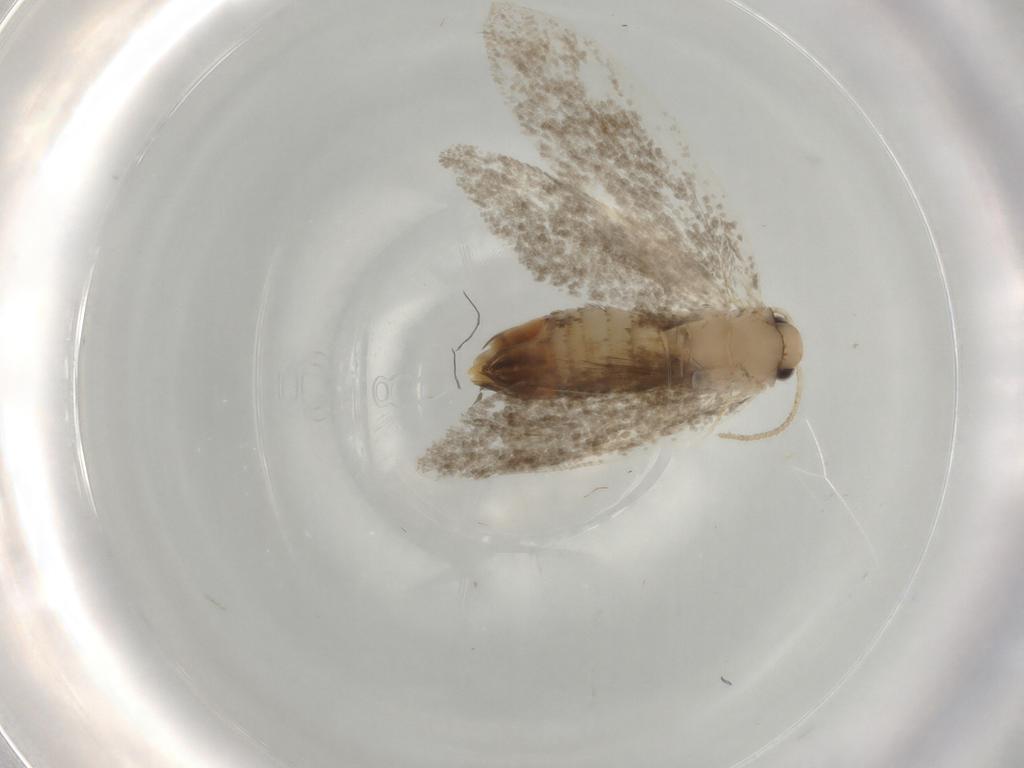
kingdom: Animalia
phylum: Arthropoda
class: Insecta
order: Lepidoptera
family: Psychidae
